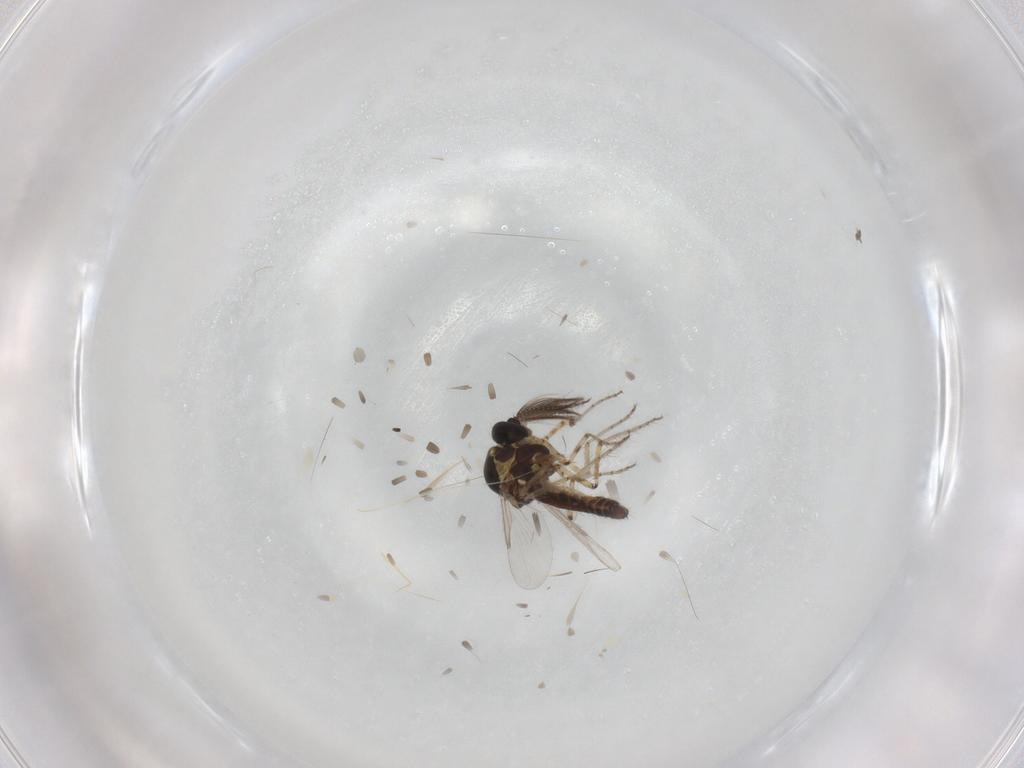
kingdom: Animalia
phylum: Arthropoda
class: Insecta
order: Diptera
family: Ceratopogonidae
